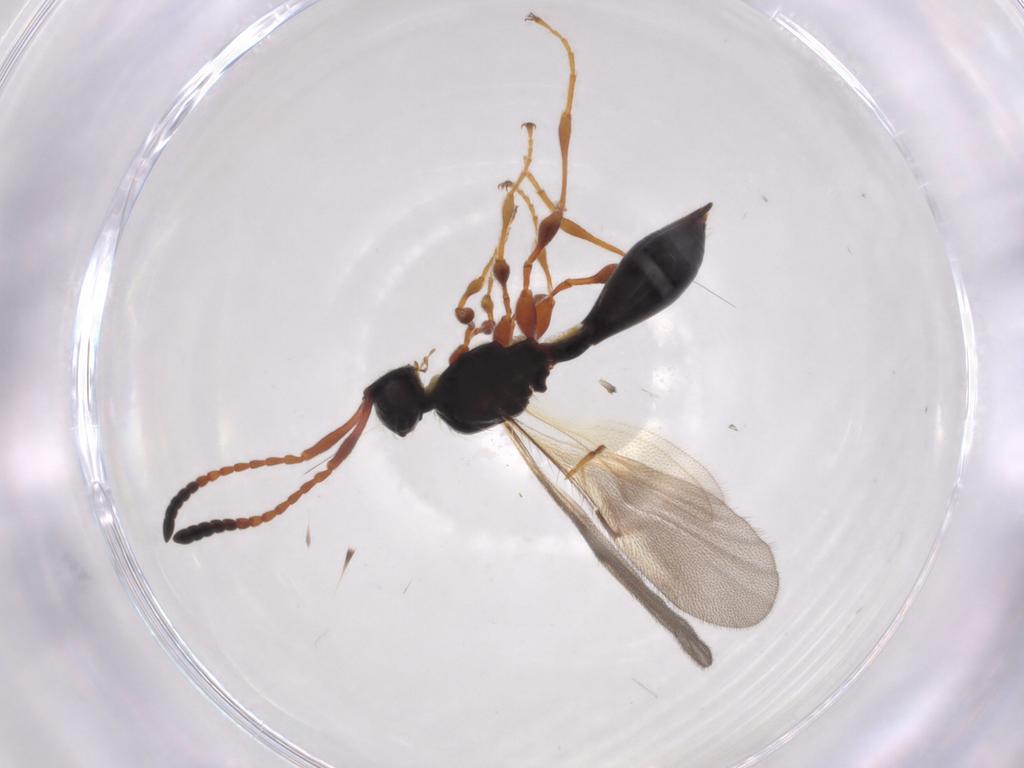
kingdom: Animalia
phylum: Arthropoda
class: Insecta
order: Hymenoptera
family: Diapriidae
